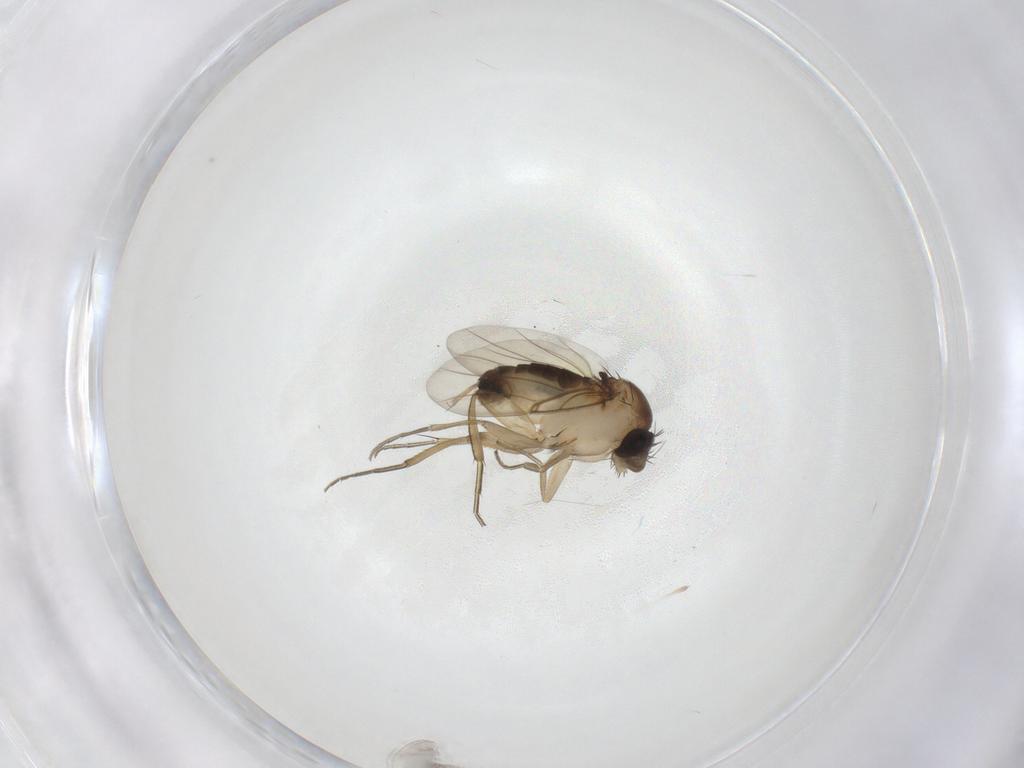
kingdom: Animalia
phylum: Arthropoda
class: Insecta
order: Diptera
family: Phoridae
